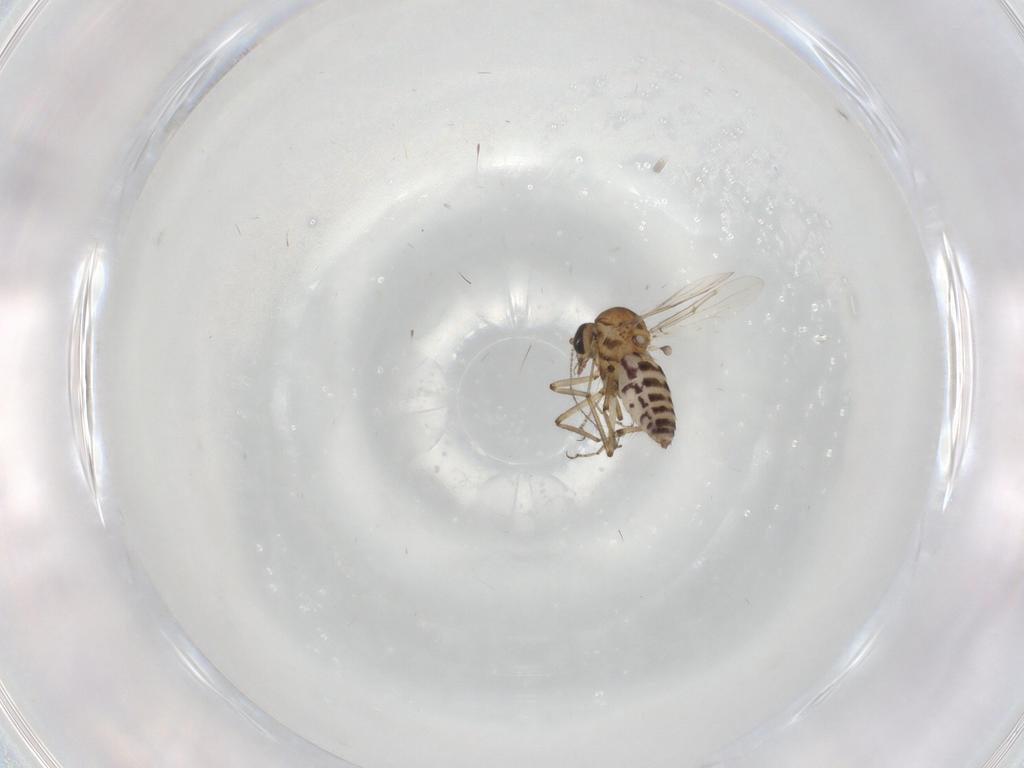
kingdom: Animalia
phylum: Arthropoda
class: Insecta
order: Diptera
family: Ceratopogonidae
